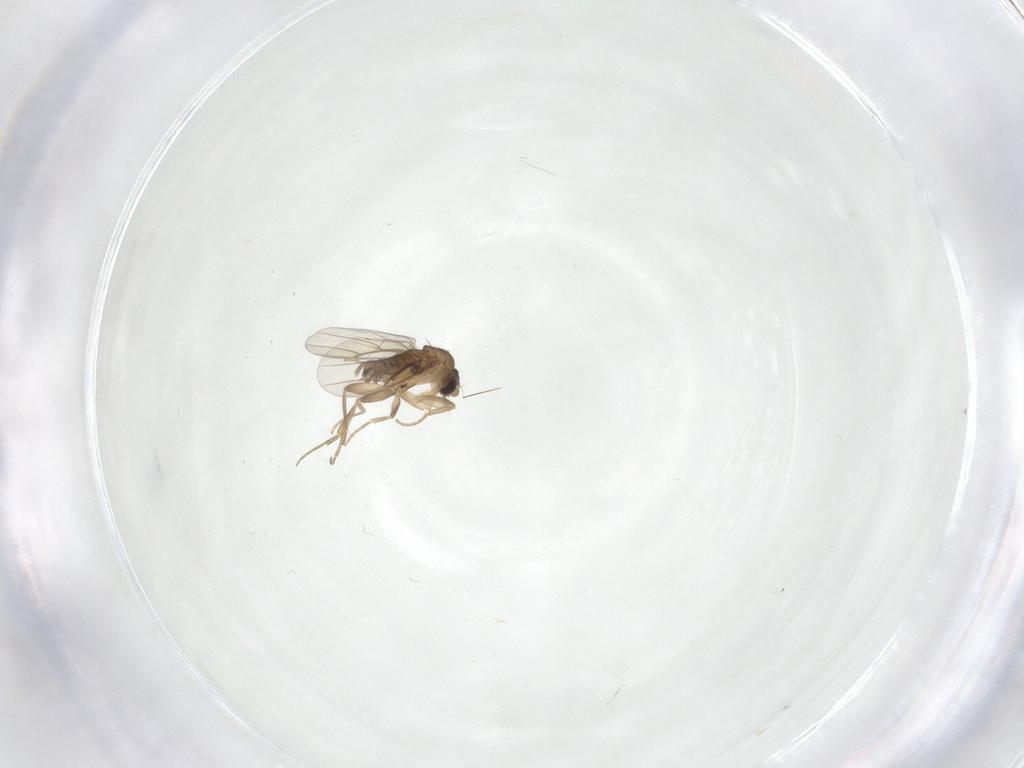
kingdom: Animalia
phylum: Arthropoda
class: Insecta
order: Diptera
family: Phoridae
